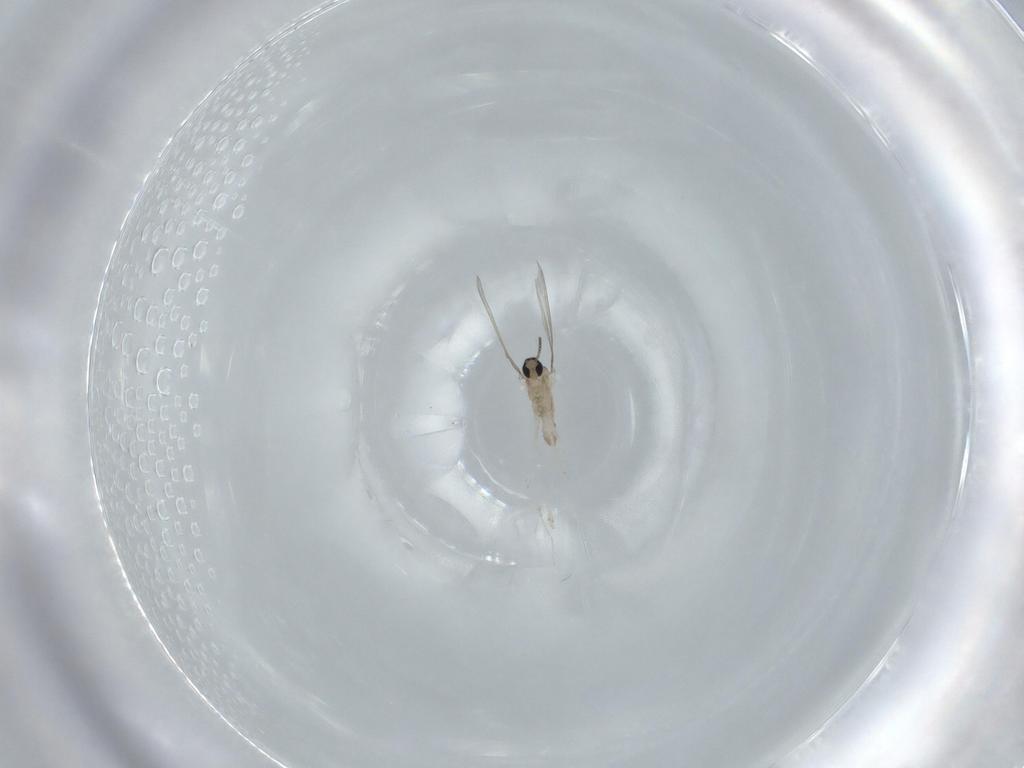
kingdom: Animalia
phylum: Arthropoda
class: Insecta
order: Diptera
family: Cecidomyiidae
